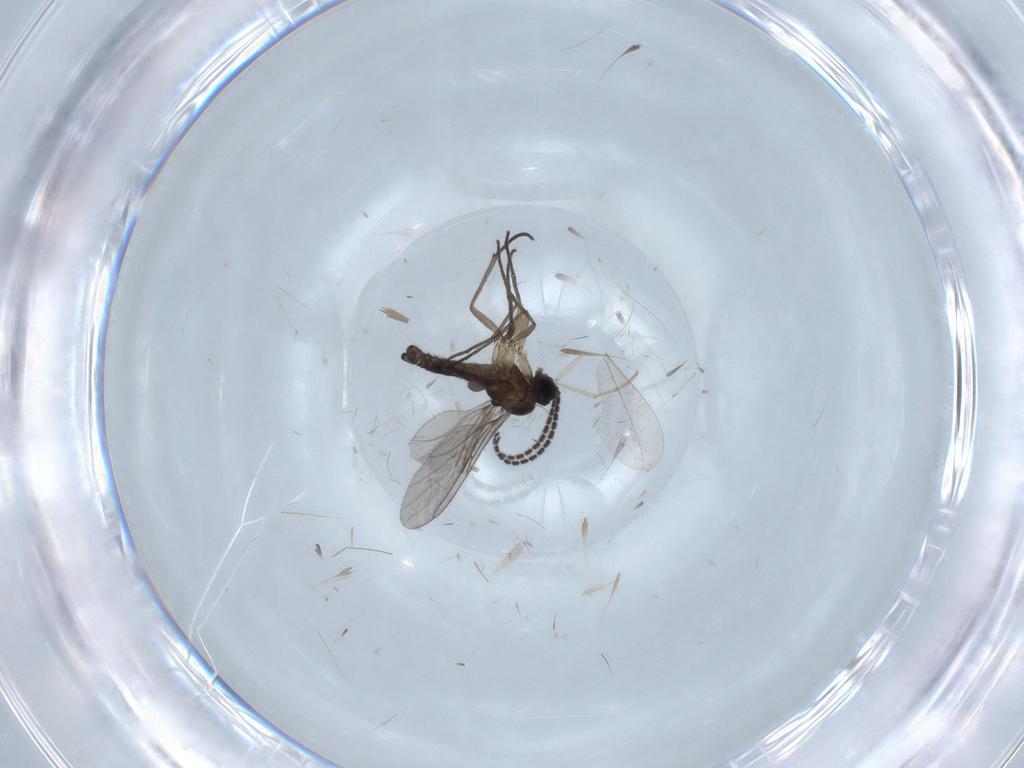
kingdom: Animalia
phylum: Arthropoda
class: Insecta
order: Diptera
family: Sciaridae
